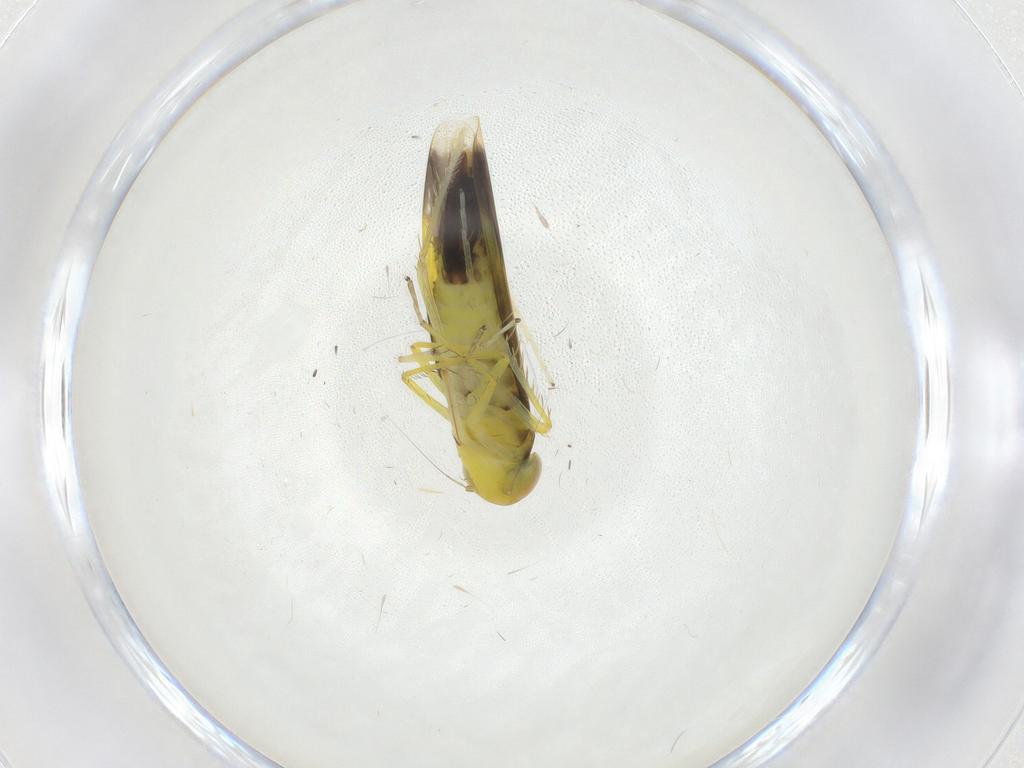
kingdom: Animalia
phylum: Arthropoda
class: Insecta
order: Hemiptera
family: Cicadellidae
